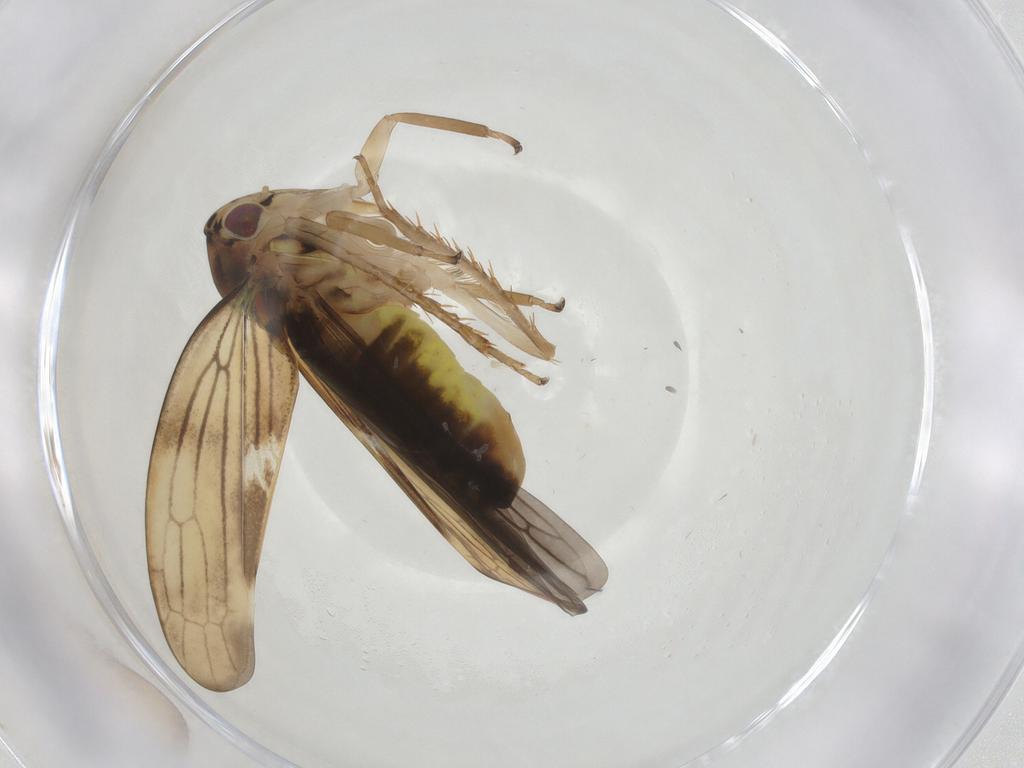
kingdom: Animalia
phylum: Arthropoda
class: Insecta
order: Hemiptera
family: Cicadellidae
